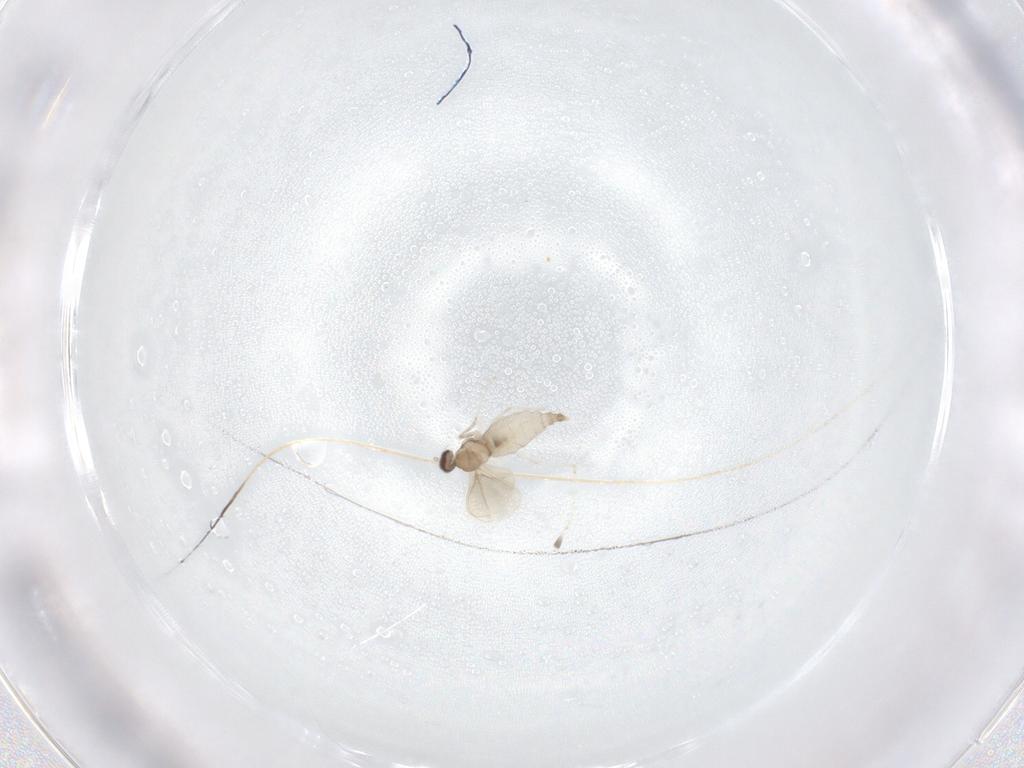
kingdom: Animalia
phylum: Arthropoda
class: Insecta
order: Diptera
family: Cecidomyiidae
